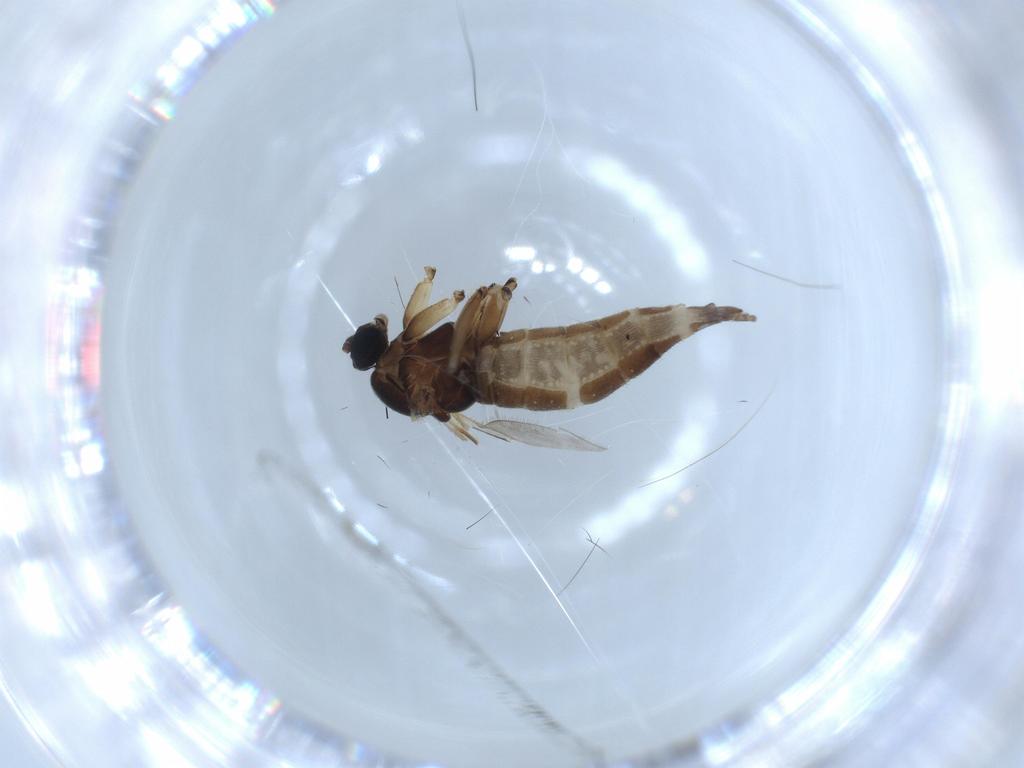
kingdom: Animalia
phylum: Arthropoda
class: Insecta
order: Diptera
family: Sciaridae
